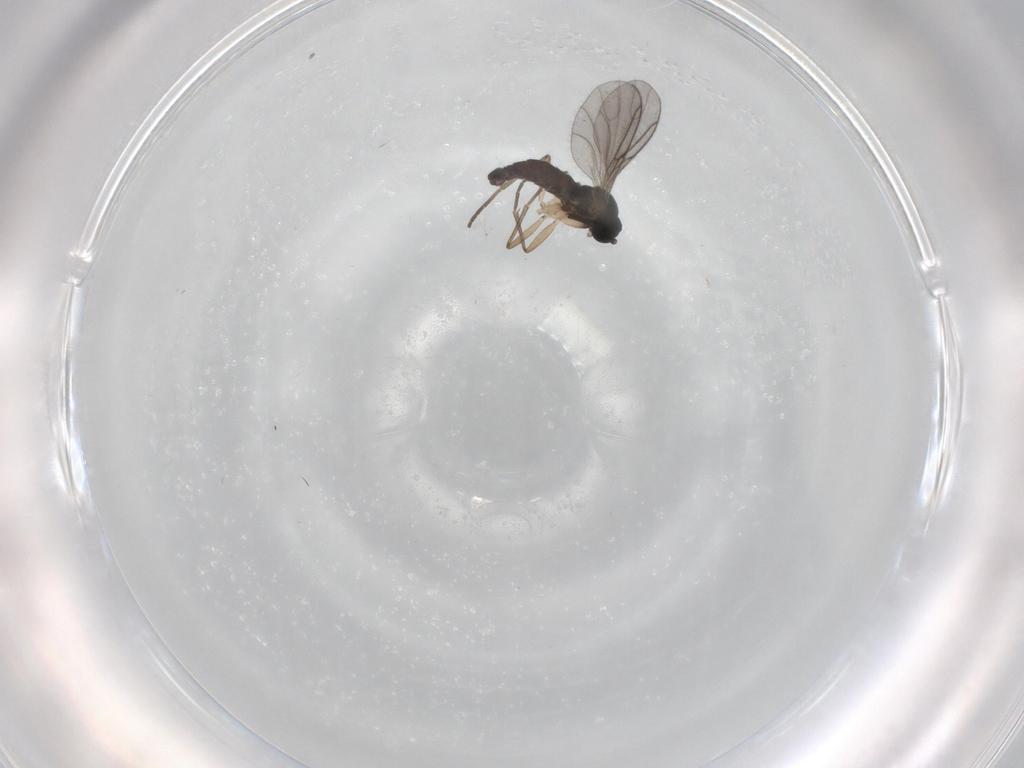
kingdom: Animalia
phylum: Arthropoda
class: Insecta
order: Diptera
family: Sciaridae
